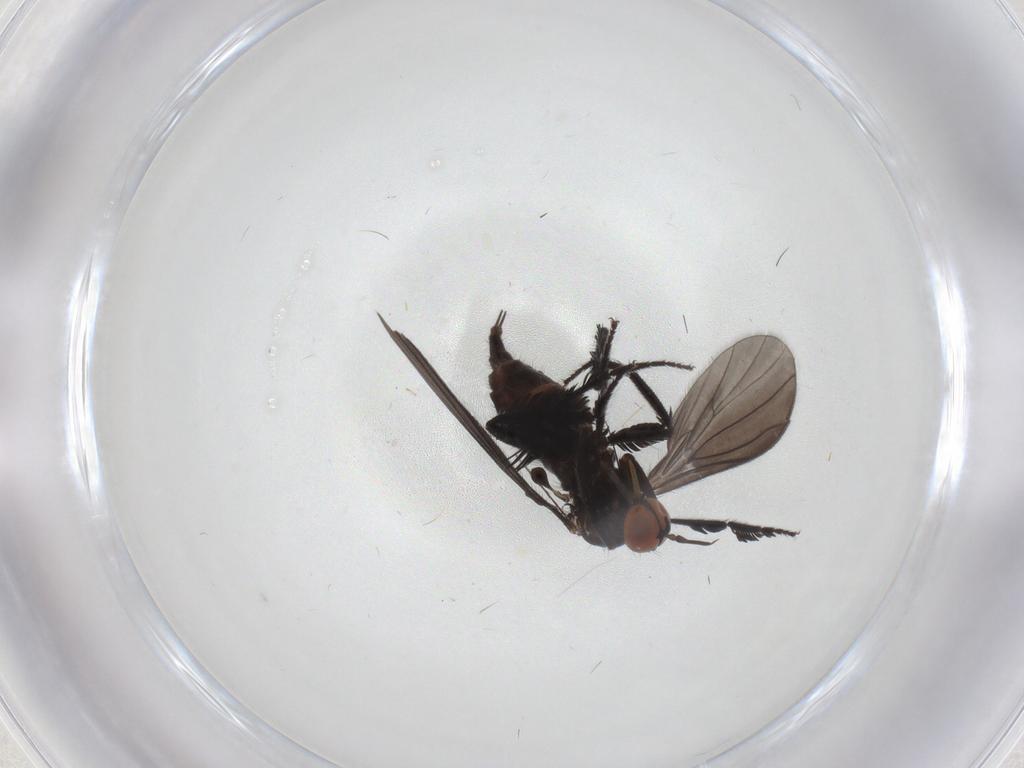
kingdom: Animalia
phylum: Arthropoda
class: Insecta
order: Diptera
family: Empididae
